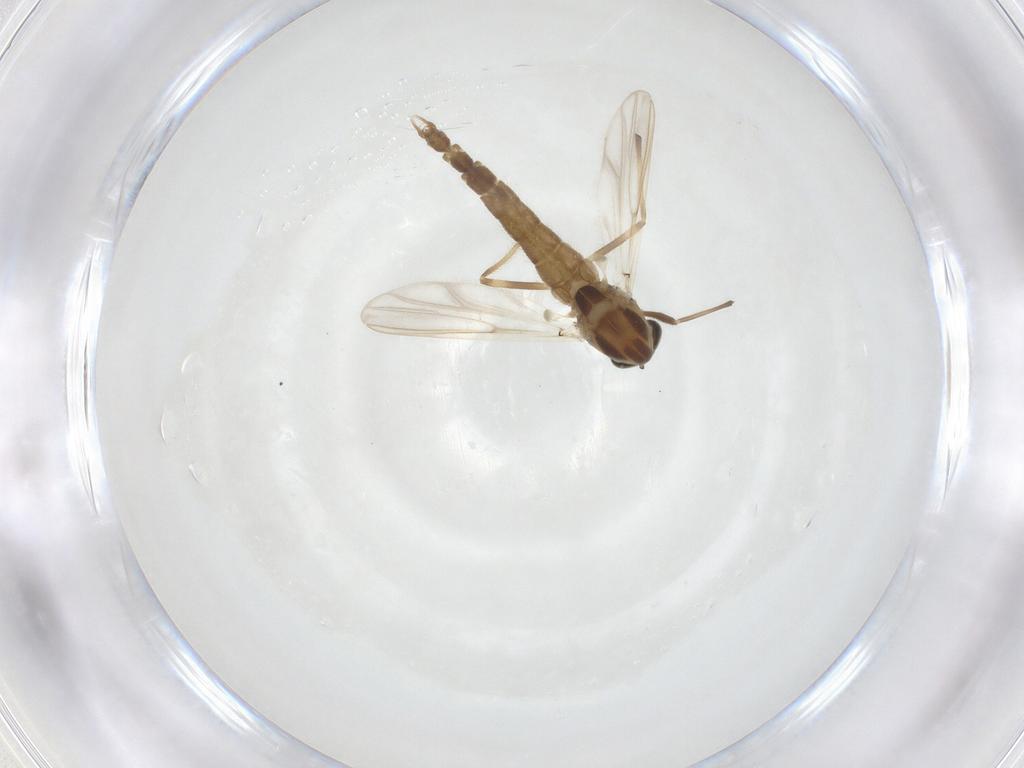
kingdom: Animalia
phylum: Arthropoda
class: Insecta
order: Diptera
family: Chironomidae
